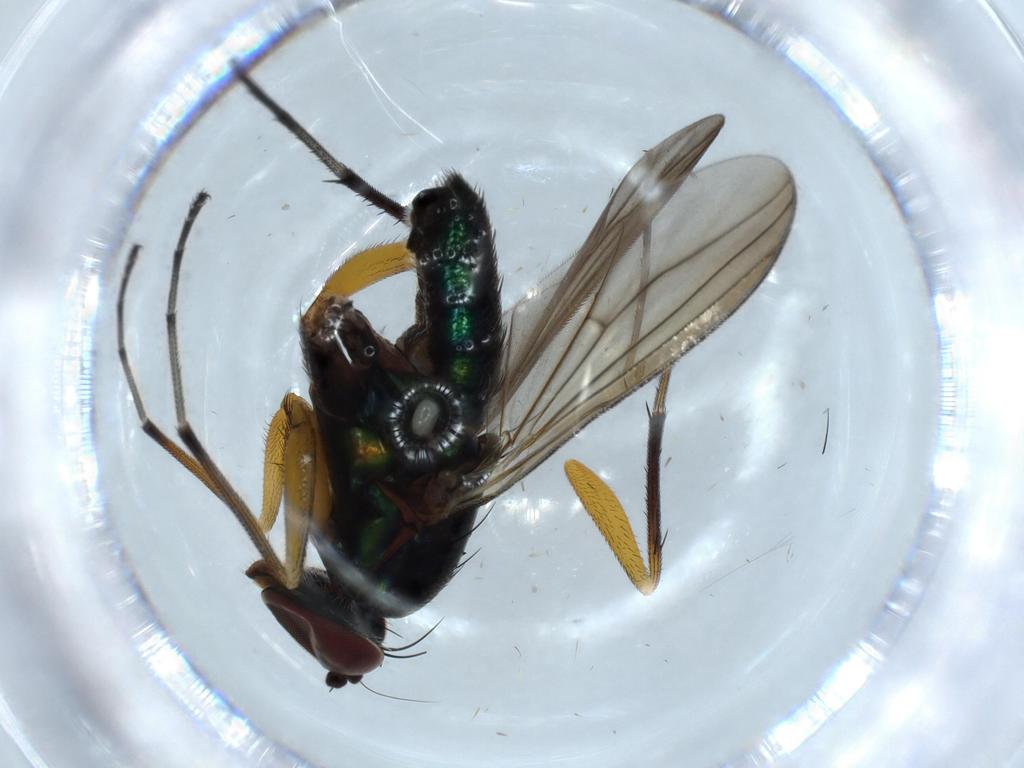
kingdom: Animalia
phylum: Arthropoda
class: Insecta
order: Diptera
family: Dolichopodidae
